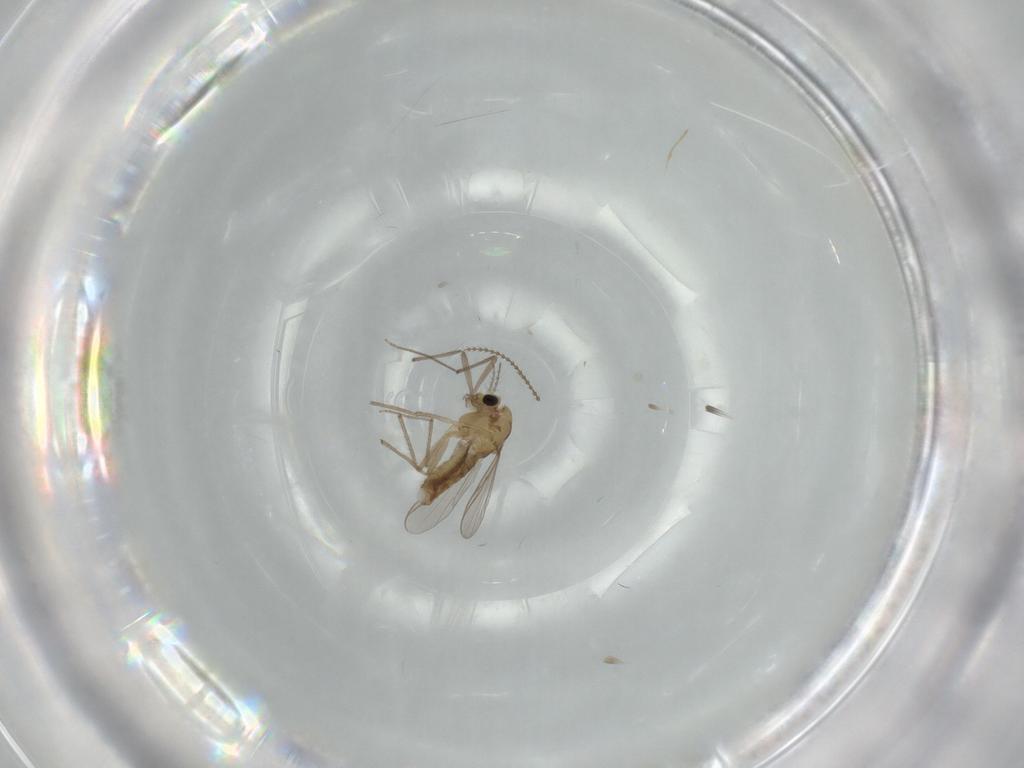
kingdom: Animalia
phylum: Arthropoda
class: Insecta
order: Diptera
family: Chironomidae
